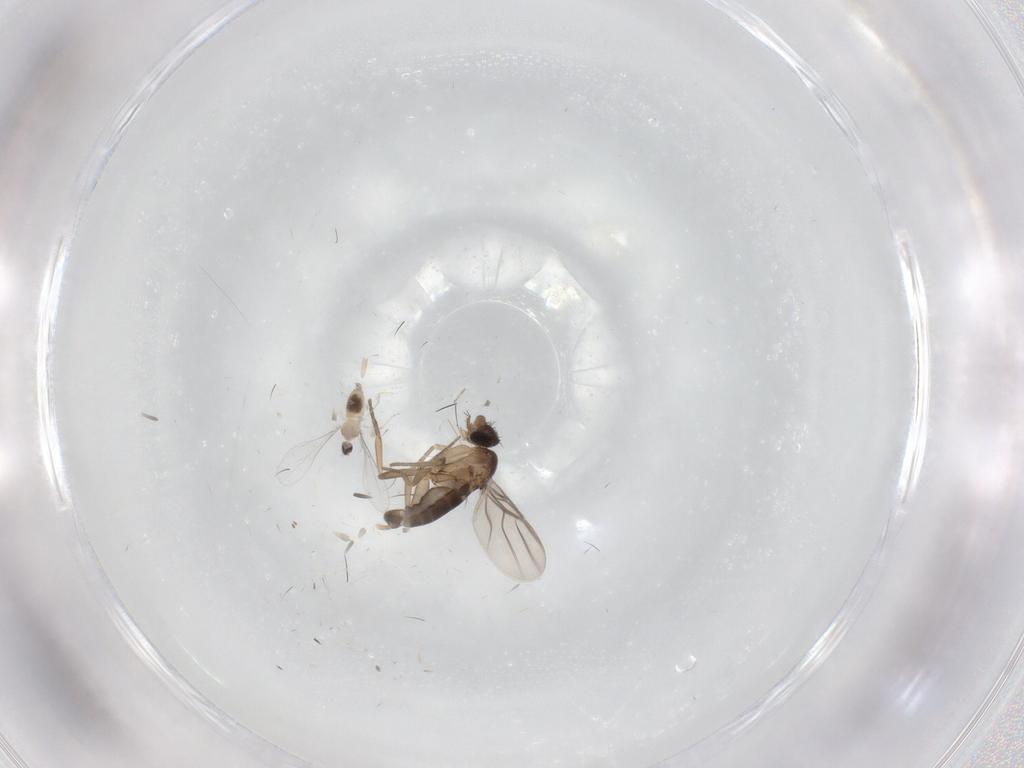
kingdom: Animalia
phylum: Arthropoda
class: Insecta
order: Diptera
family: Phoridae
